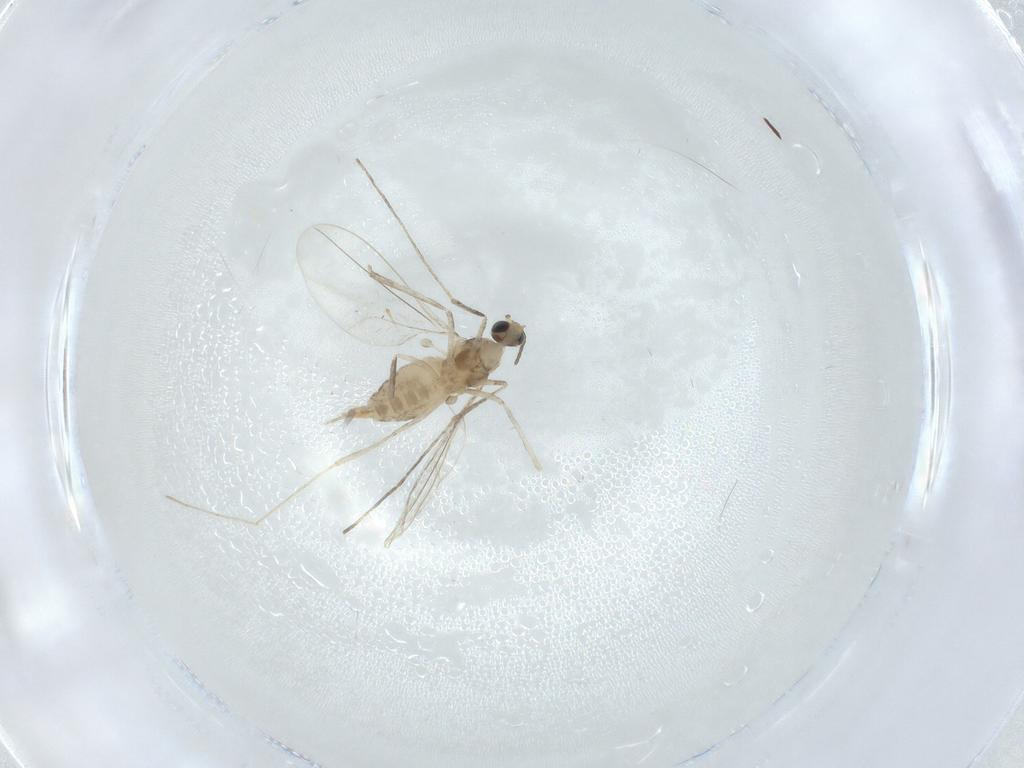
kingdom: Animalia
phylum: Arthropoda
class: Insecta
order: Diptera
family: Cecidomyiidae
